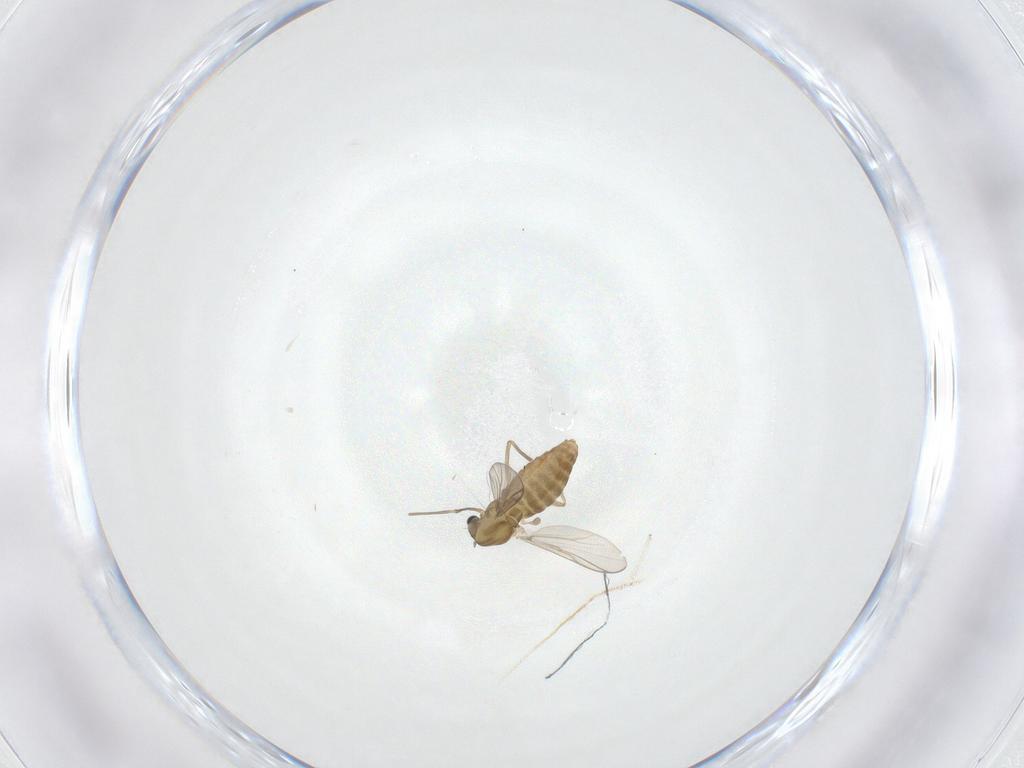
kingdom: Animalia
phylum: Arthropoda
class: Insecta
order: Diptera
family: Chironomidae
